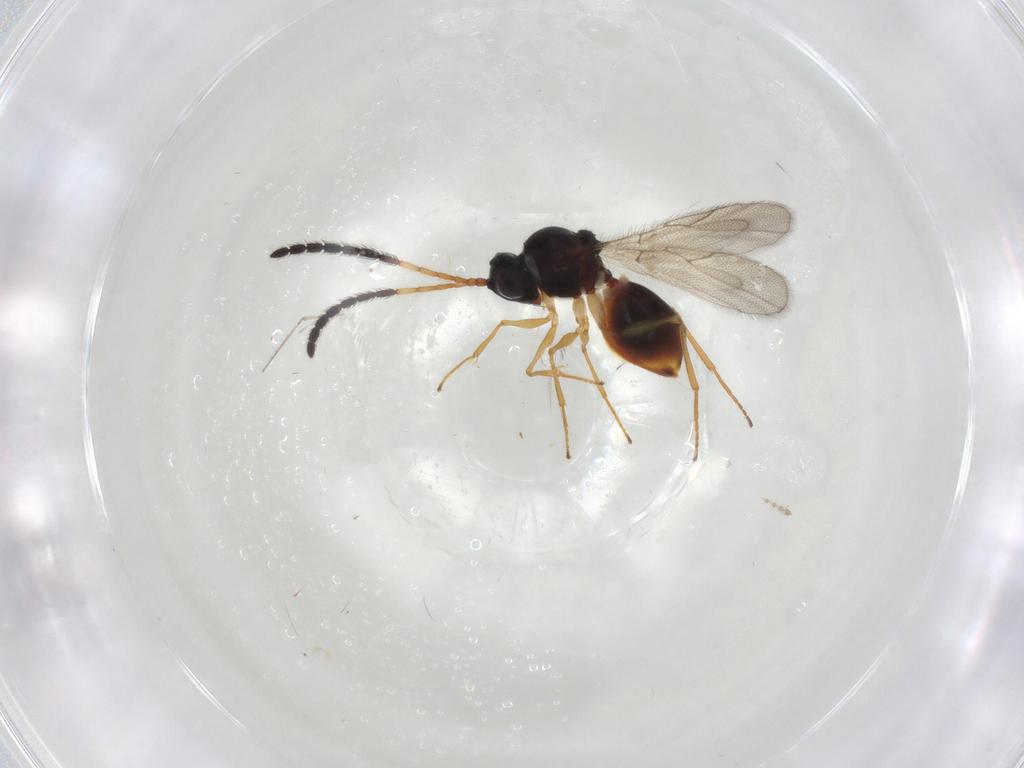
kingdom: Animalia
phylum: Arthropoda
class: Insecta
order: Hymenoptera
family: Figitidae
